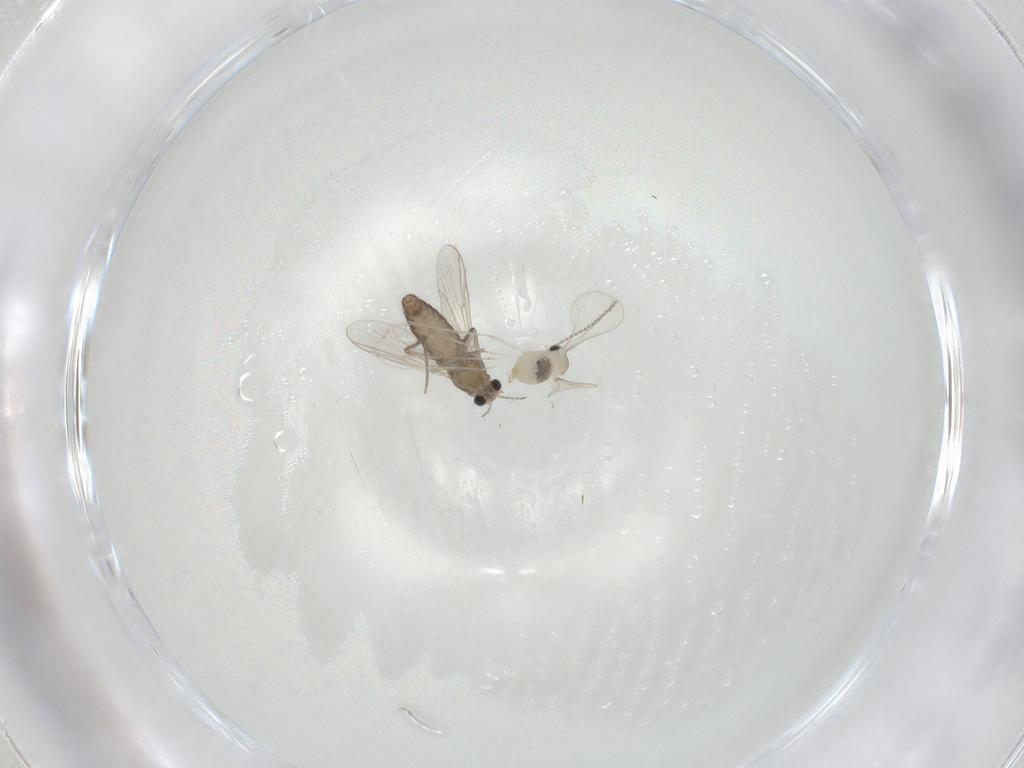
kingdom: Animalia
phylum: Arthropoda
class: Insecta
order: Diptera
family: Chironomidae
